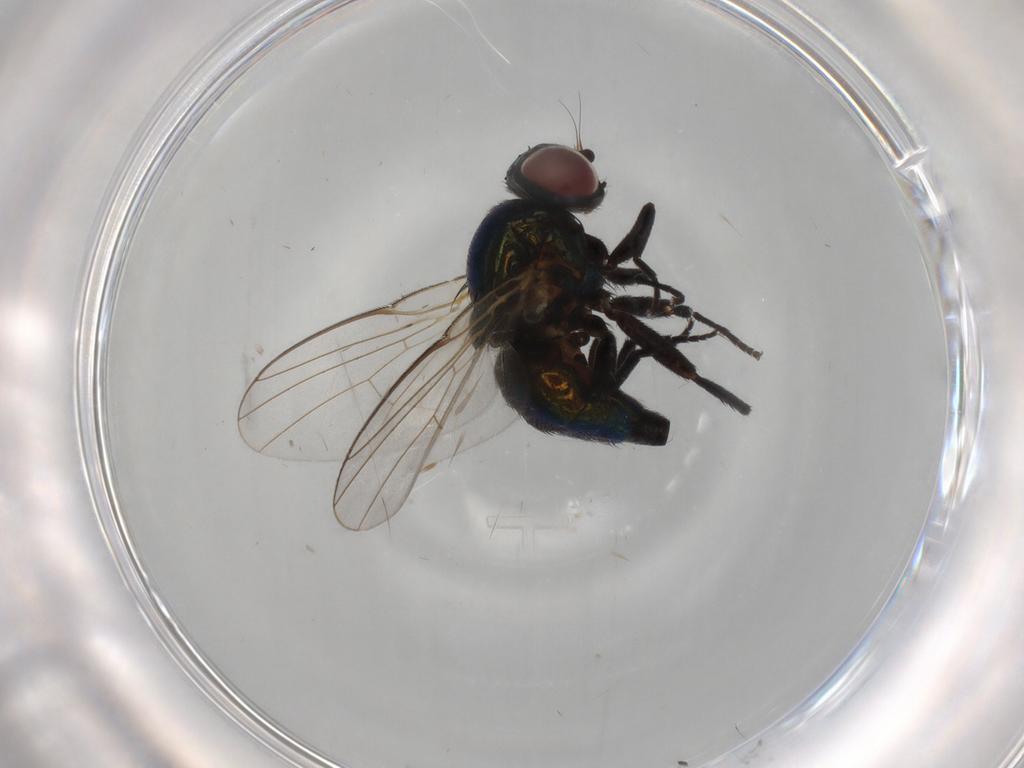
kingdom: Animalia
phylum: Arthropoda
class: Insecta
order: Diptera
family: Agromyzidae
